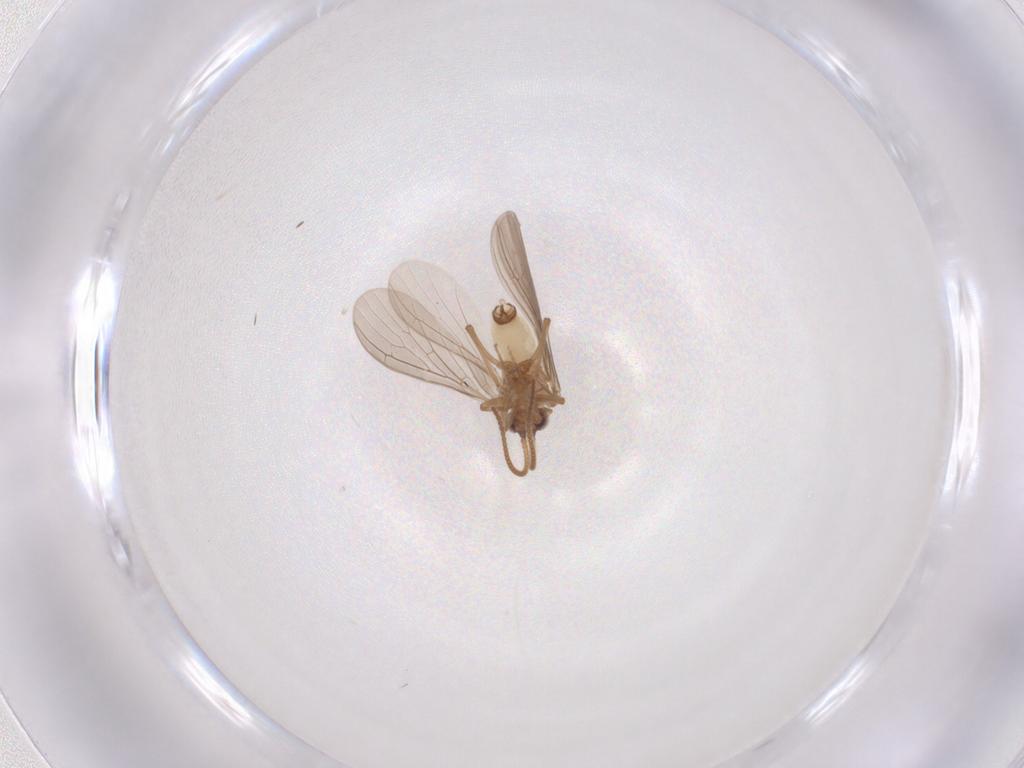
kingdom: Animalia
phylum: Arthropoda
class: Insecta
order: Neuroptera
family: Coniopterygidae
